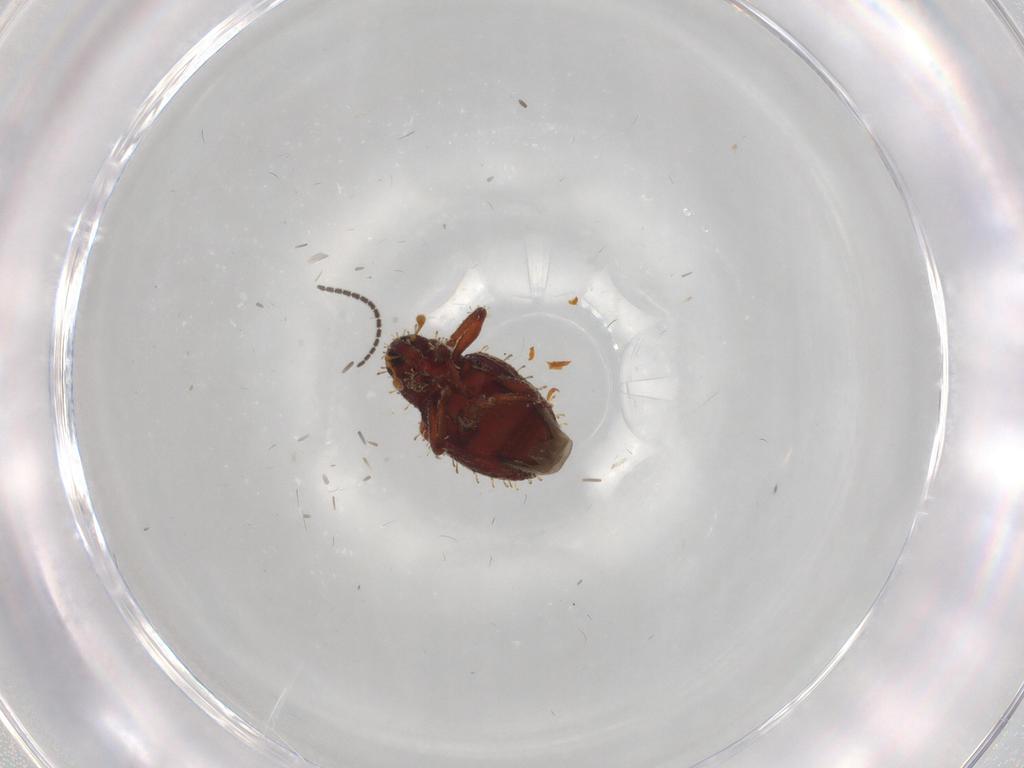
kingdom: Animalia
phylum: Arthropoda
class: Insecta
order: Coleoptera
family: Curculionidae
